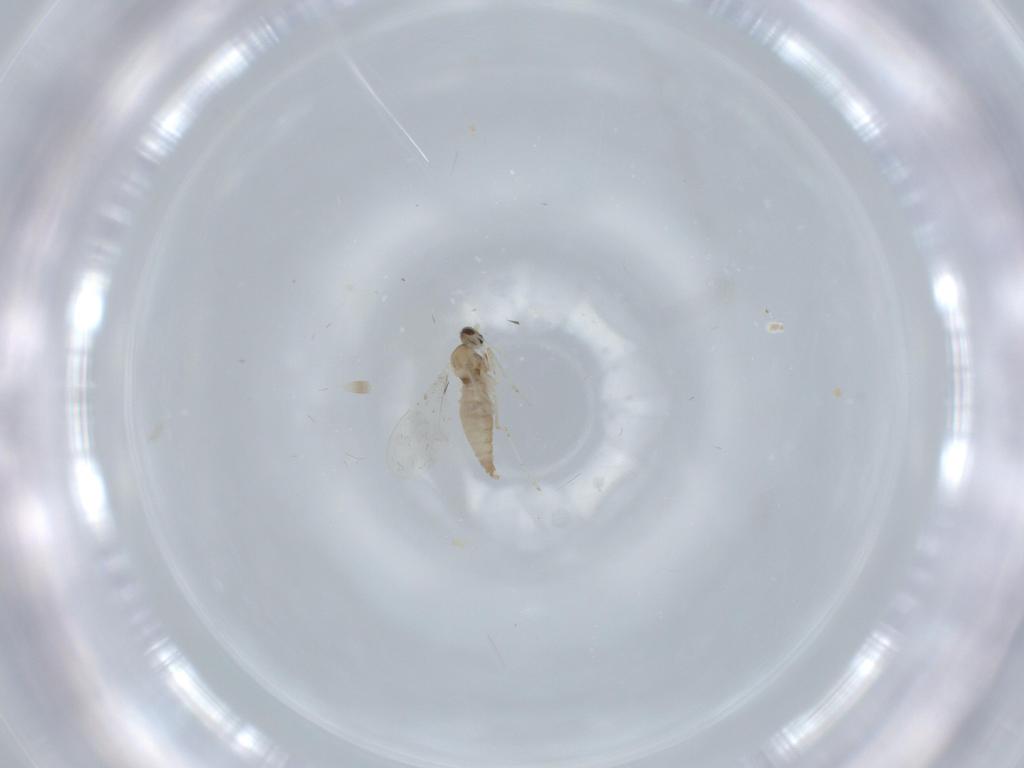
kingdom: Animalia
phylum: Arthropoda
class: Insecta
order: Diptera
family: Cecidomyiidae
